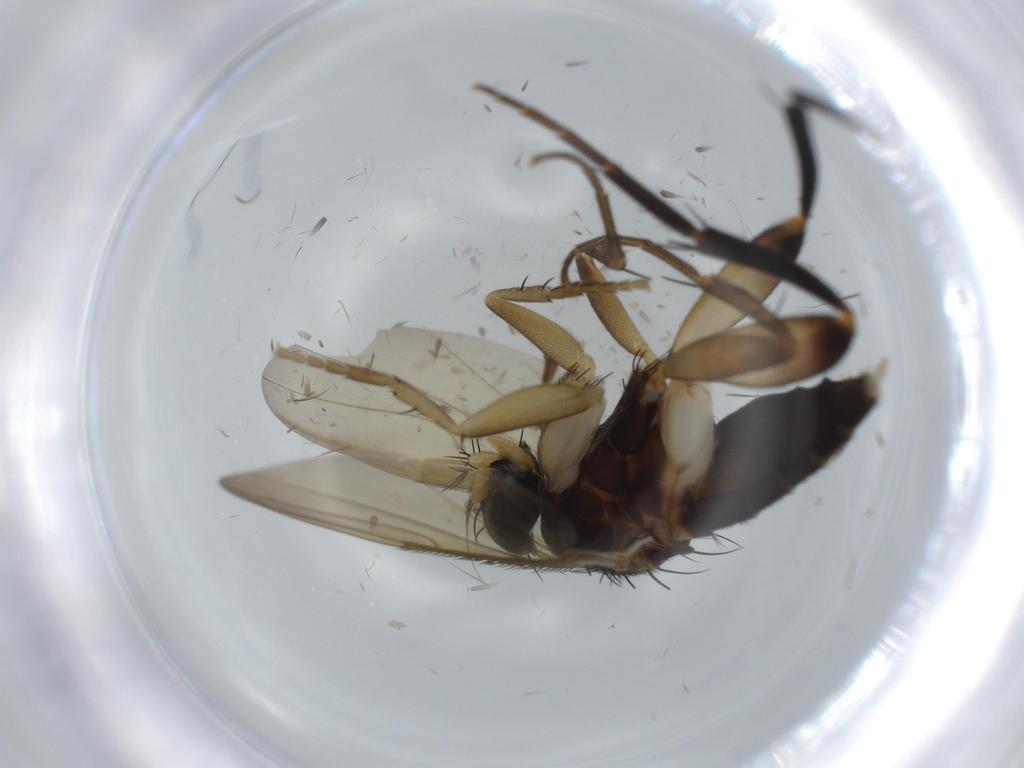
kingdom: Animalia
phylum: Arthropoda
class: Insecta
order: Diptera
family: Phoridae
